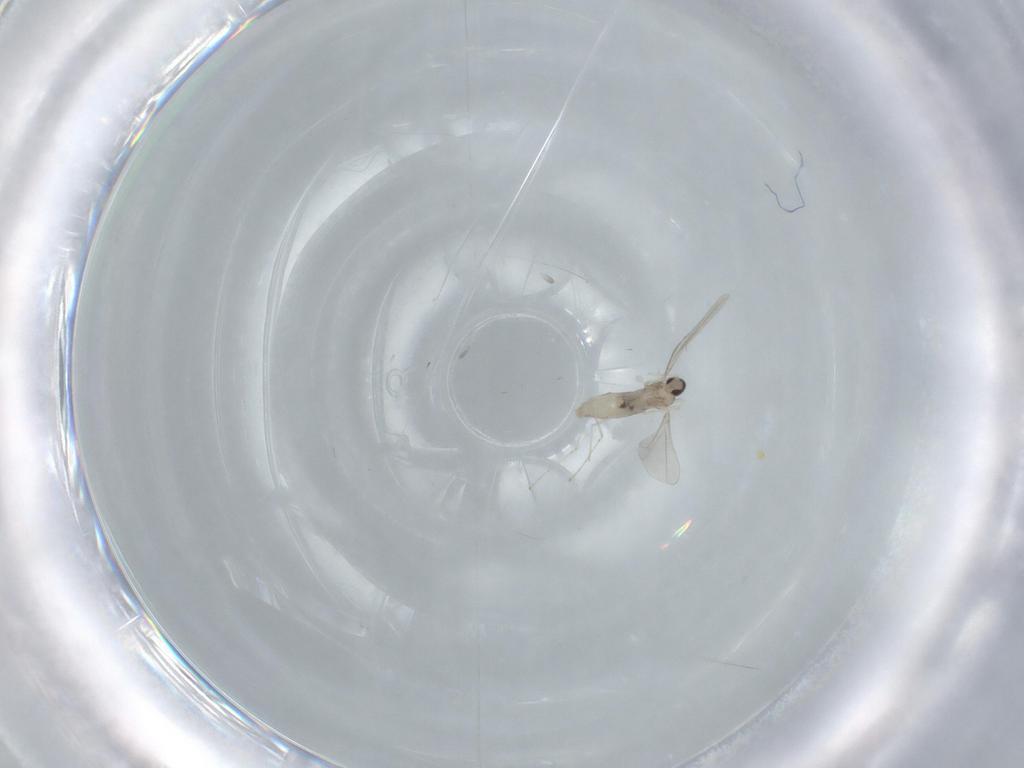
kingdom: Animalia
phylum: Arthropoda
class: Insecta
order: Diptera
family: Cecidomyiidae
